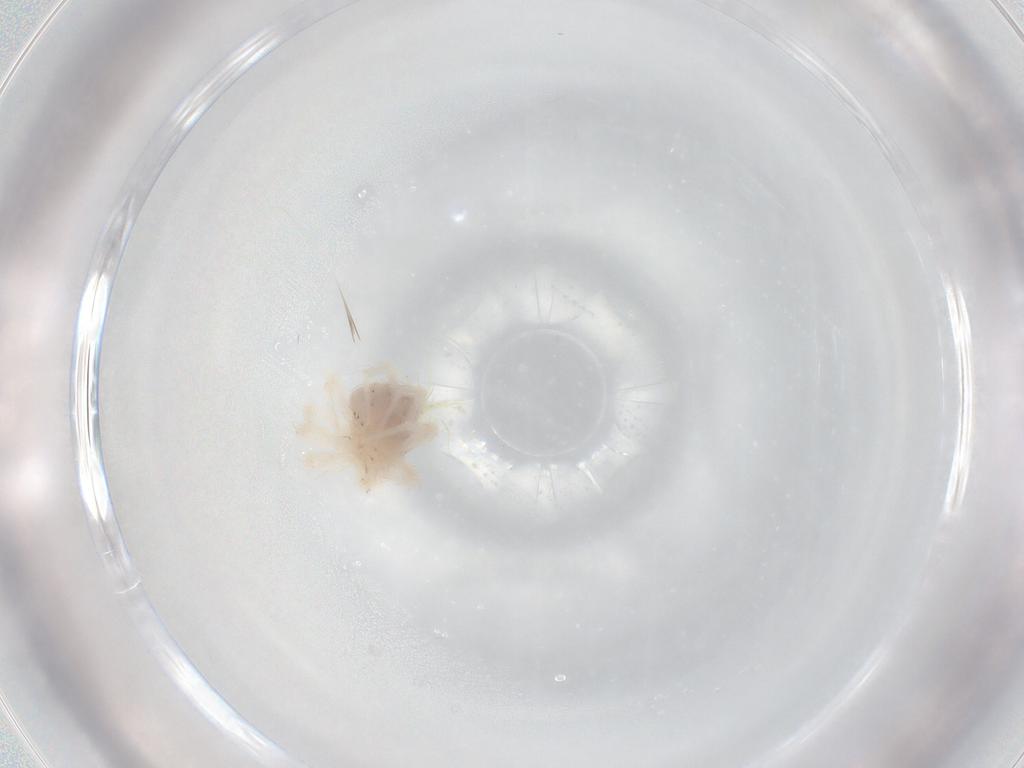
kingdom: Animalia
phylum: Arthropoda
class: Arachnida
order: Trombidiformes
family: Anystidae
